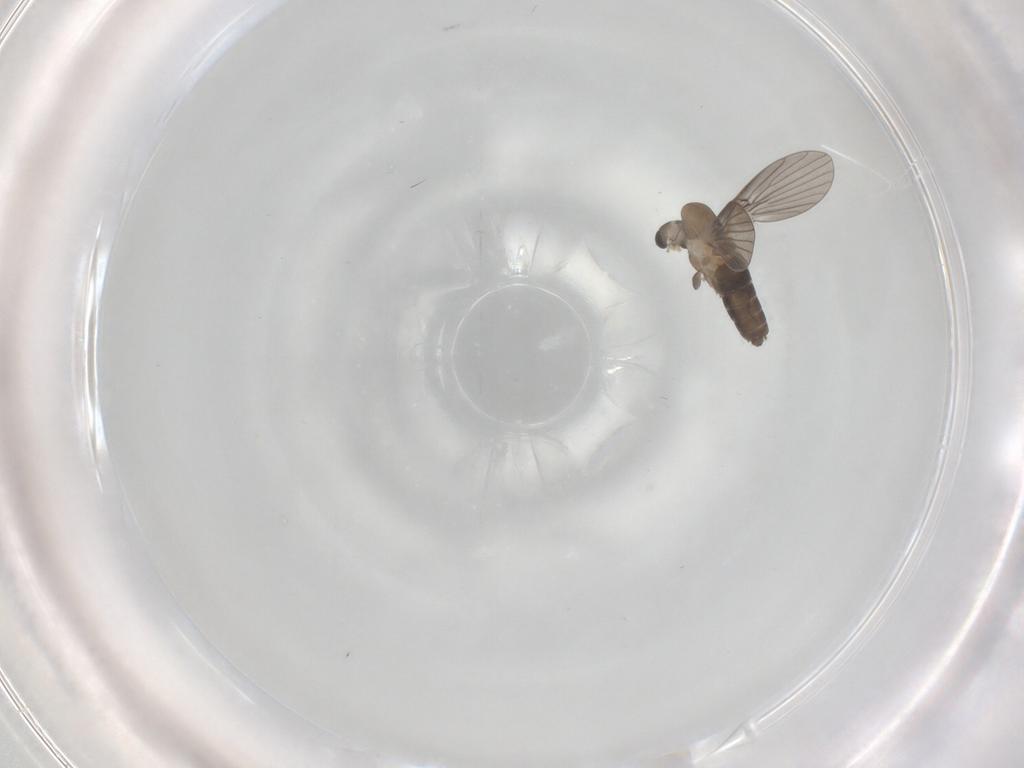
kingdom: Animalia
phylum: Arthropoda
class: Insecta
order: Diptera
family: Psychodidae
